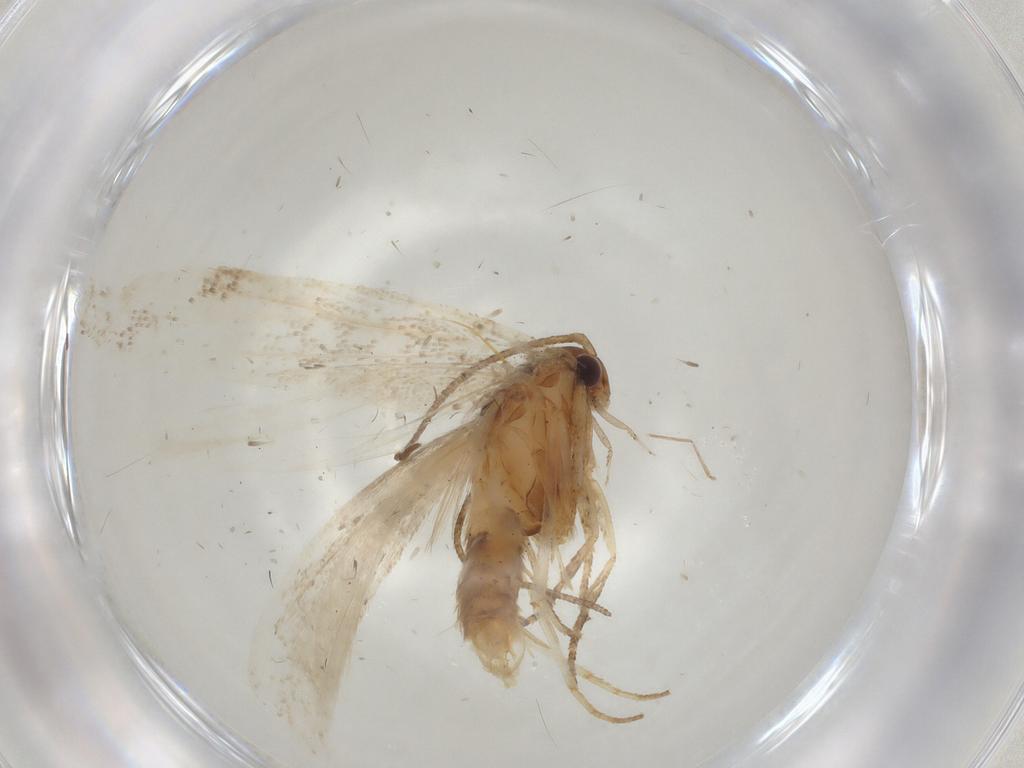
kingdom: Animalia
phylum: Arthropoda
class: Insecta
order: Lepidoptera
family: Gelechiidae
